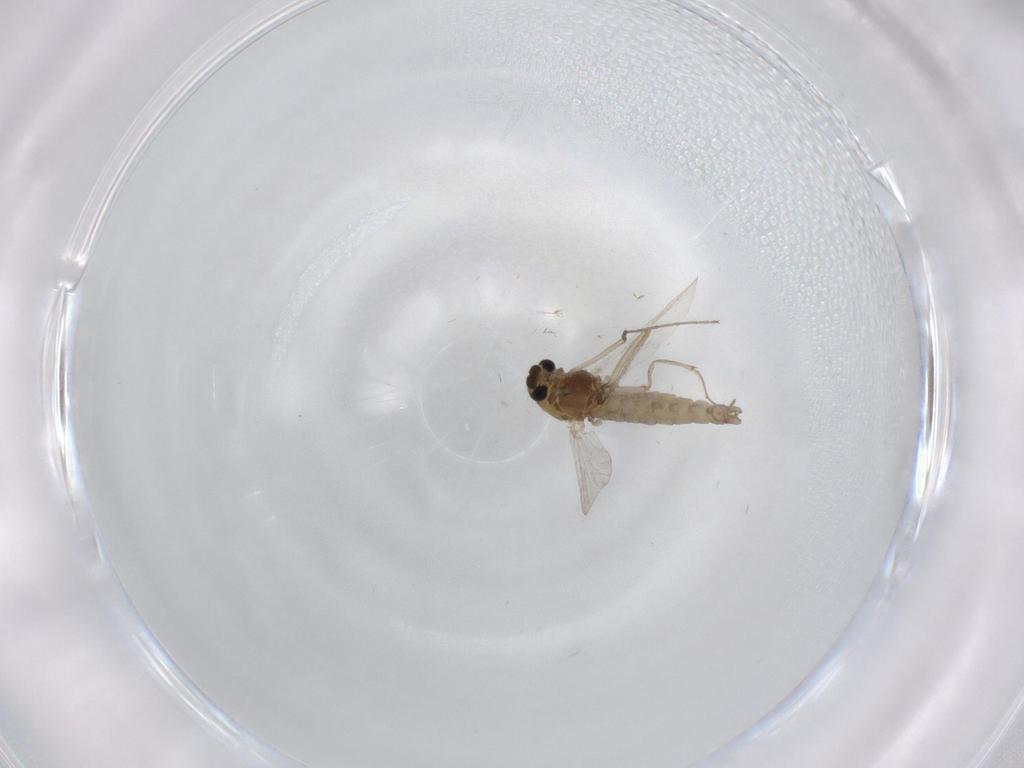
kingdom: Animalia
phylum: Arthropoda
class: Insecta
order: Diptera
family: Chironomidae
